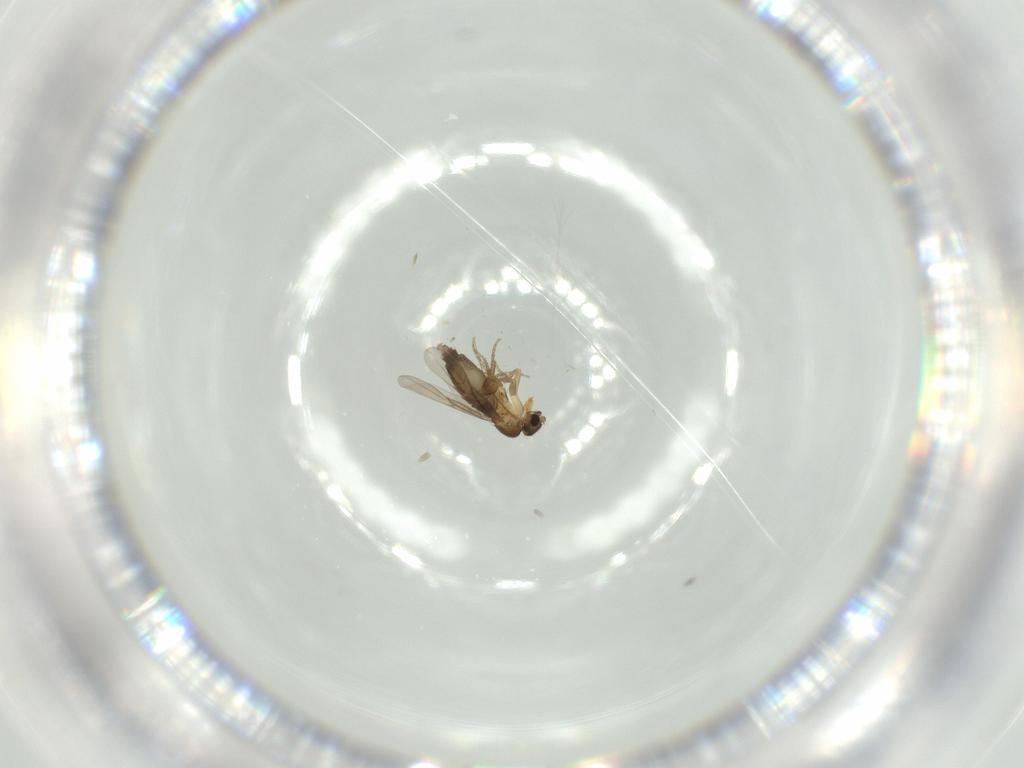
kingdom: Animalia
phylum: Arthropoda
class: Insecta
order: Diptera
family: Phoridae
